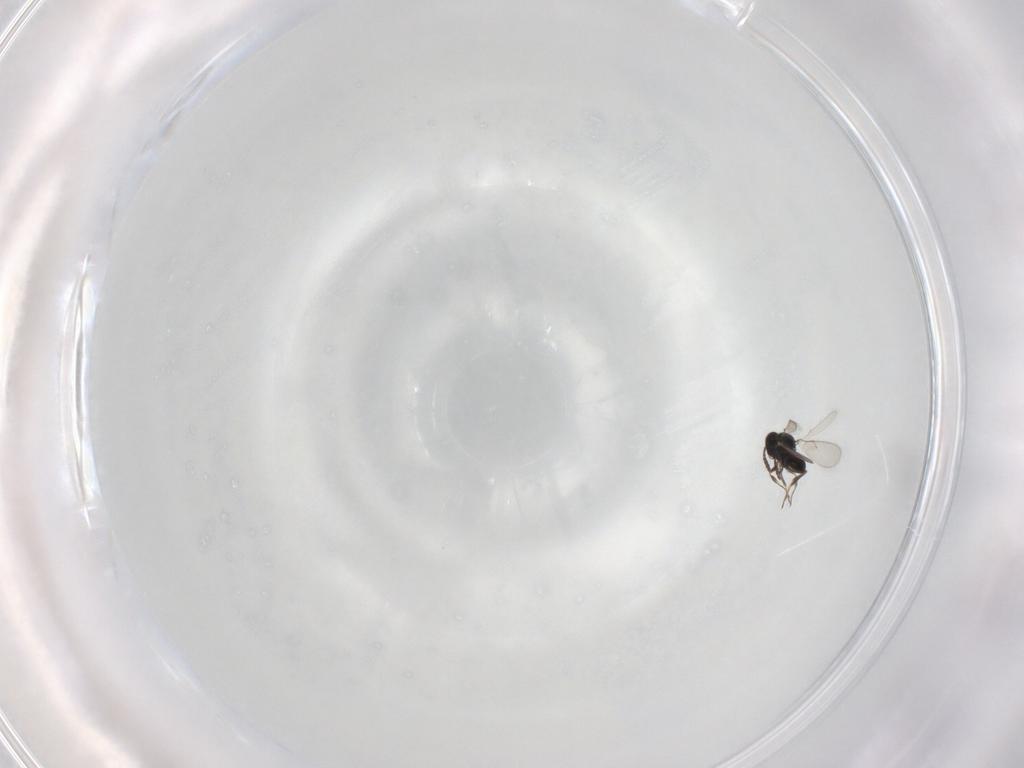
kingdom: Animalia
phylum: Arthropoda
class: Insecta
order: Hymenoptera
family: Scelionidae
